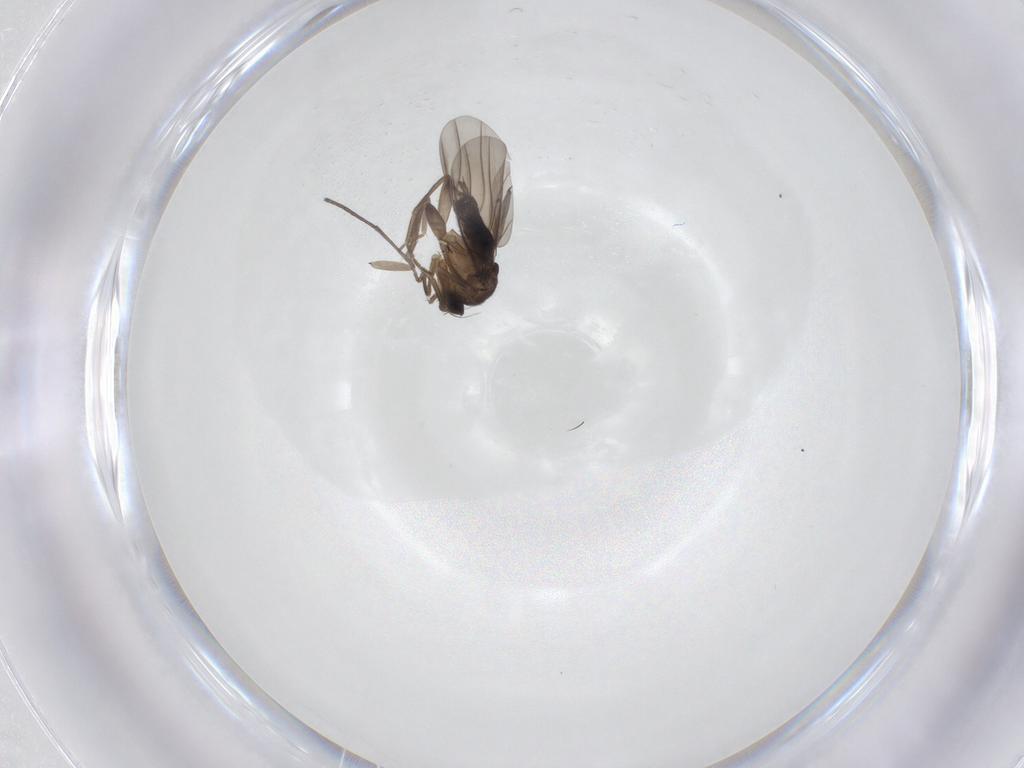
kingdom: Animalia
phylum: Arthropoda
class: Insecta
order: Diptera
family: Sciaridae
